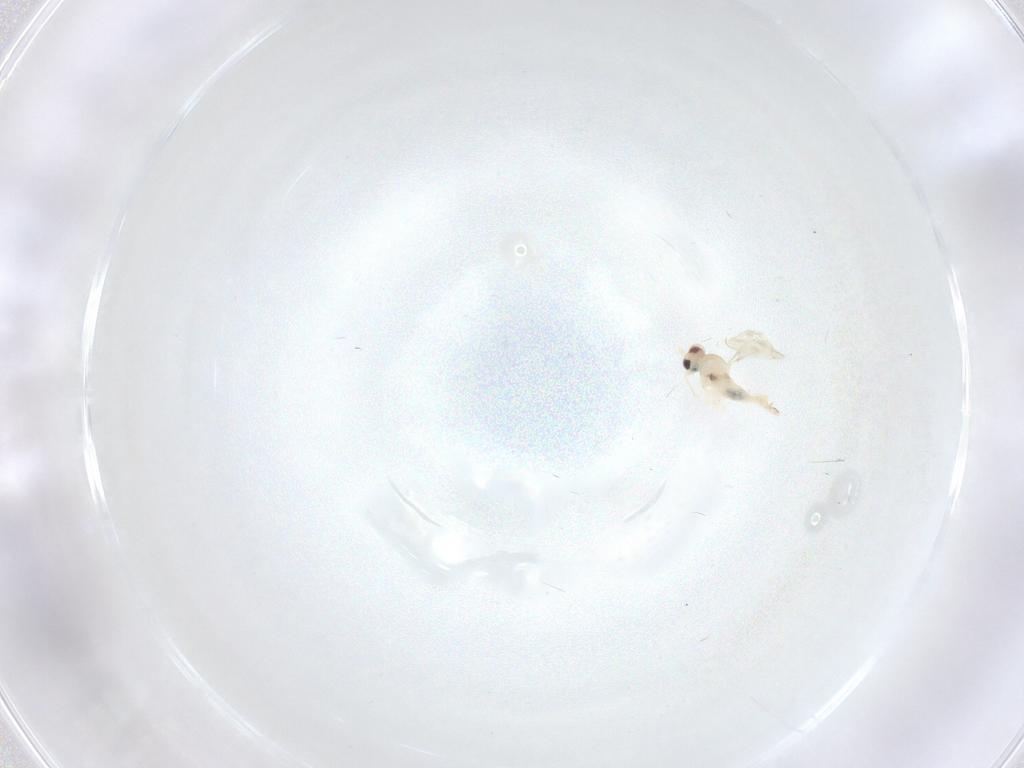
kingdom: Animalia
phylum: Arthropoda
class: Insecta
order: Diptera
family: Cecidomyiidae
